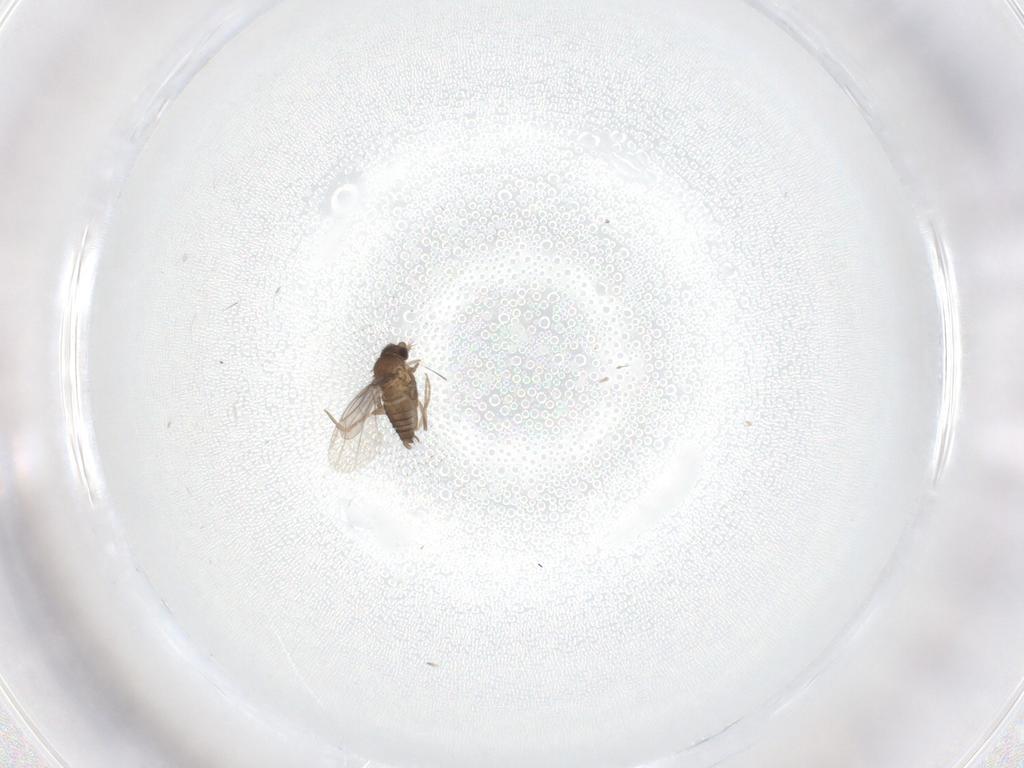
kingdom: Animalia
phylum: Arthropoda
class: Insecta
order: Diptera
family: Phoridae
